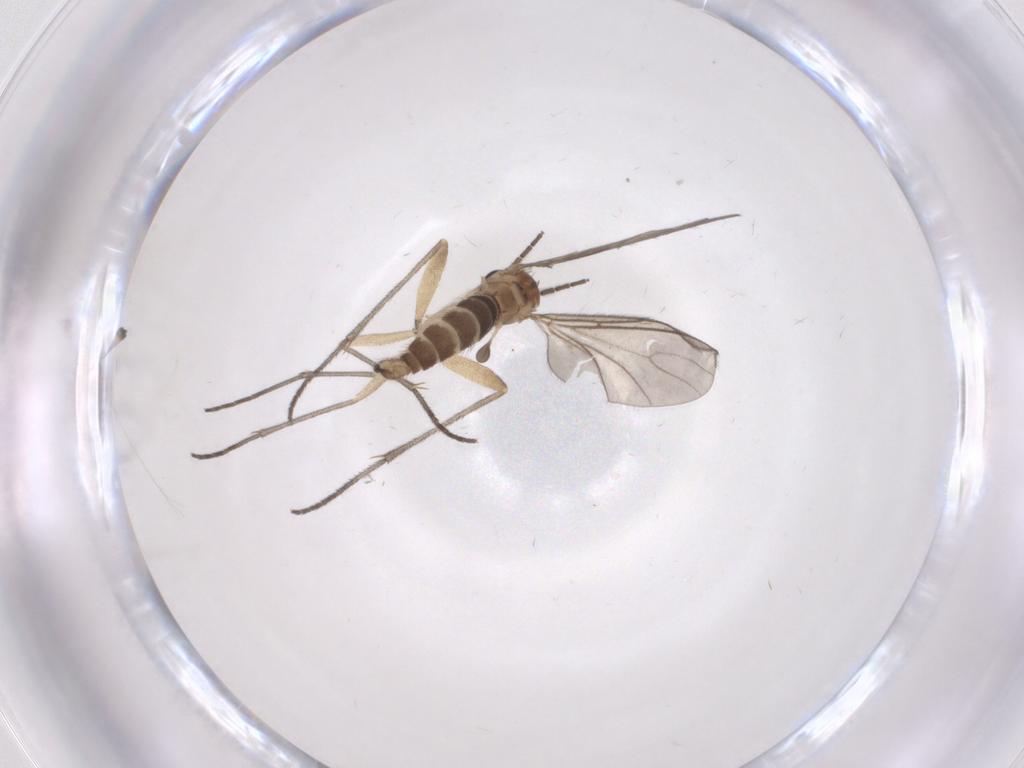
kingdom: Animalia
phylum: Arthropoda
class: Insecta
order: Diptera
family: Sciaridae
